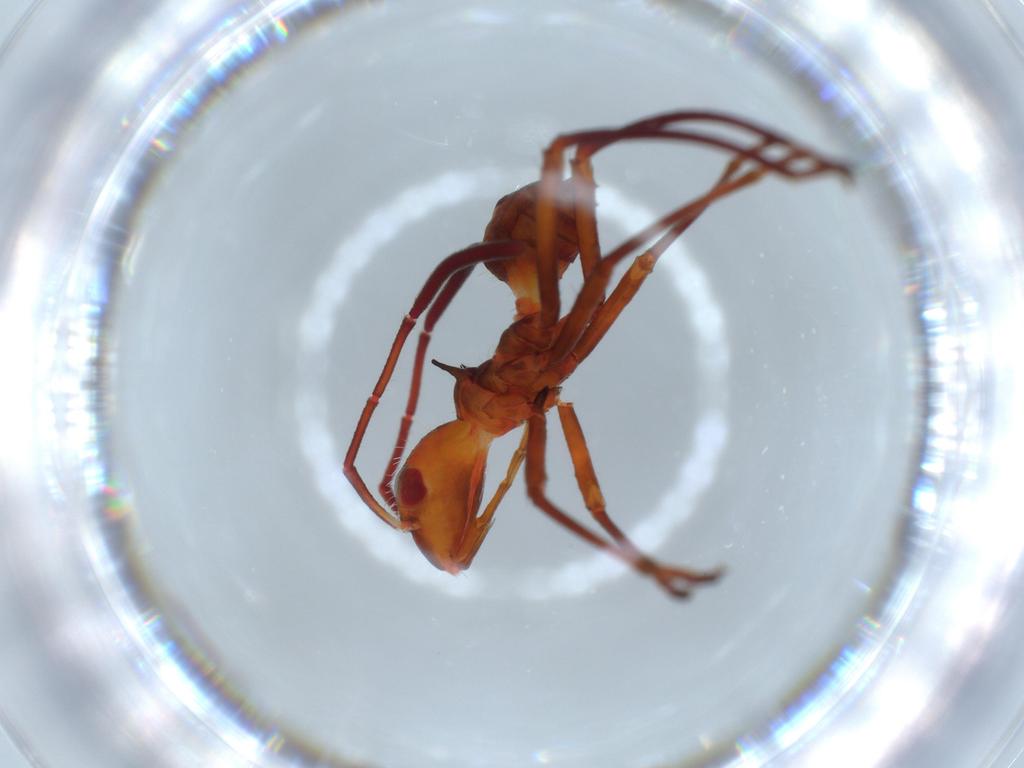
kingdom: Animalia
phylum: Arthropoda
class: Insecta
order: Hemiptera
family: Alydidae
